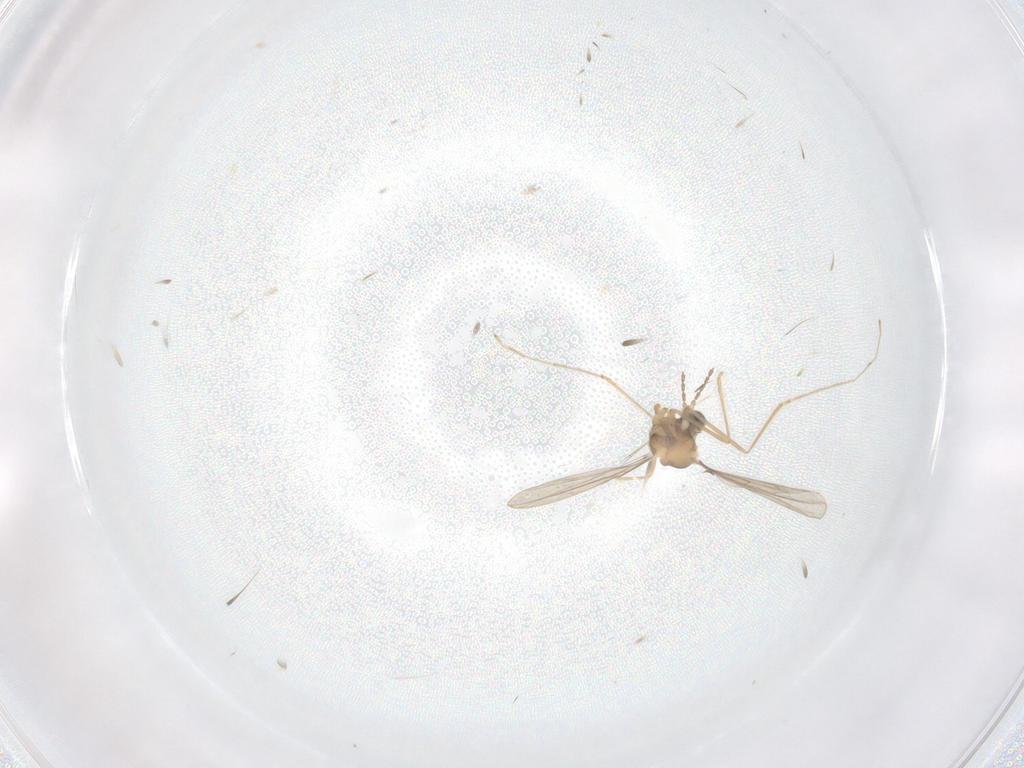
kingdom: Animalia
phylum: Arthropoda
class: Insecta
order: Diptera
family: Cecidomyiidae
